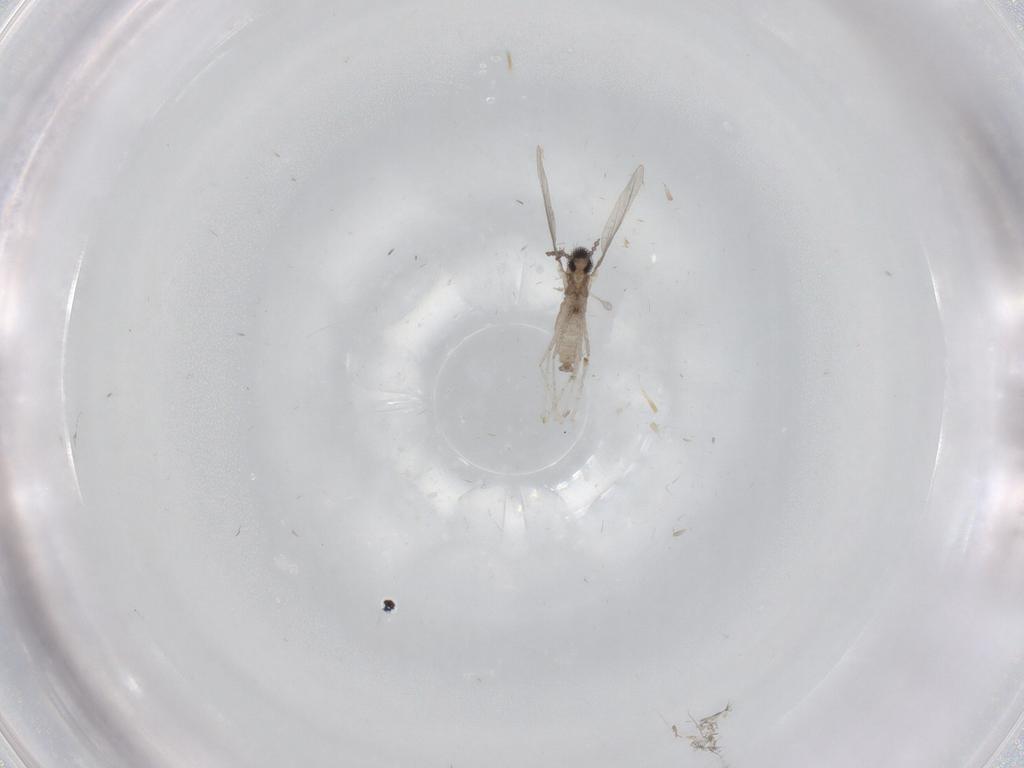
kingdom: Animalia
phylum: Arthropoda
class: Insecta
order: Diptera
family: Cecidomyiidae
